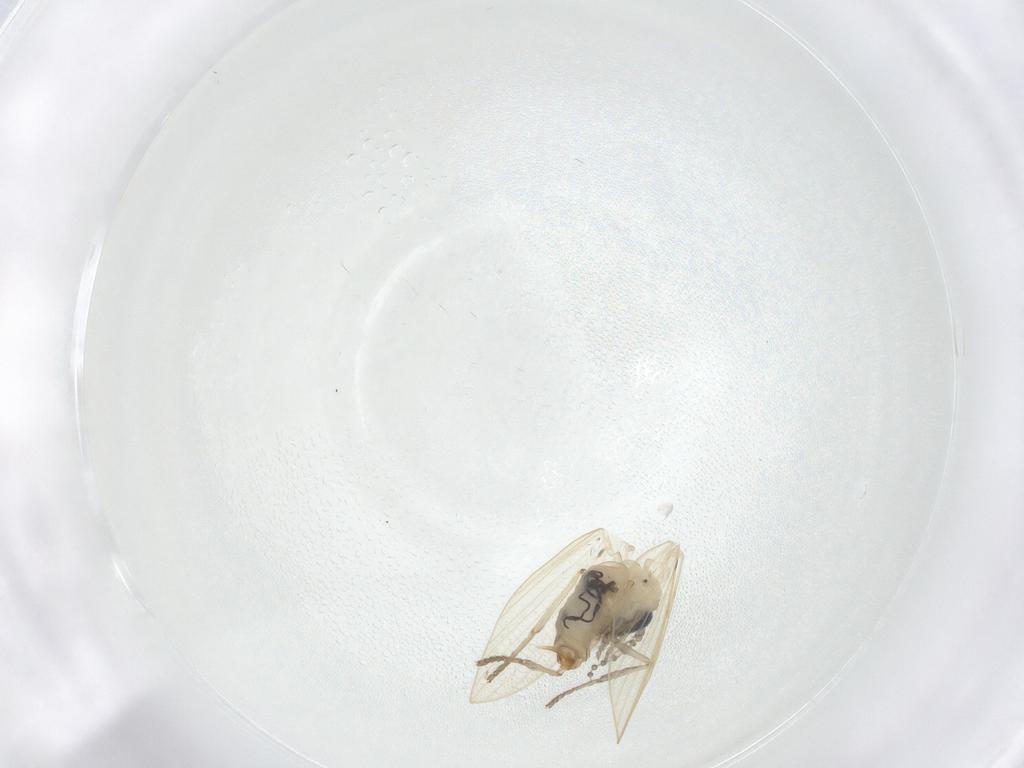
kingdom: Animalia
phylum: Arthropoda
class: Insecta
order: Diptera
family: Psychodidae
